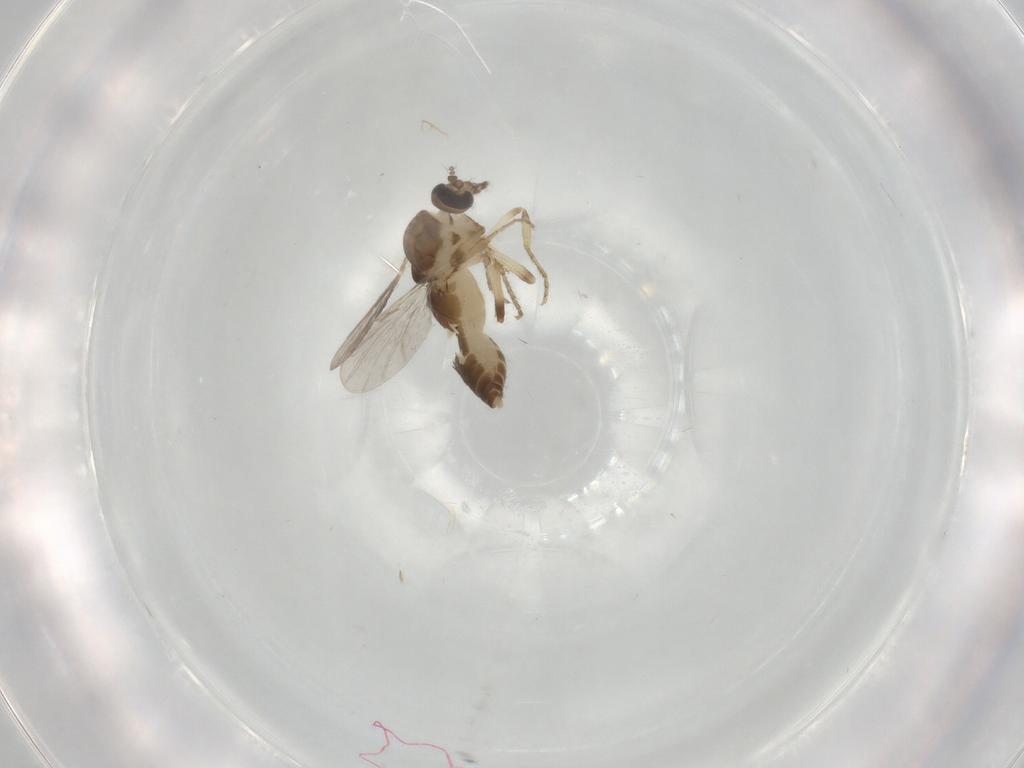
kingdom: Animalia
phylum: Arthropoda
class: Insecta
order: Diptera
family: Ceratopogonidae
